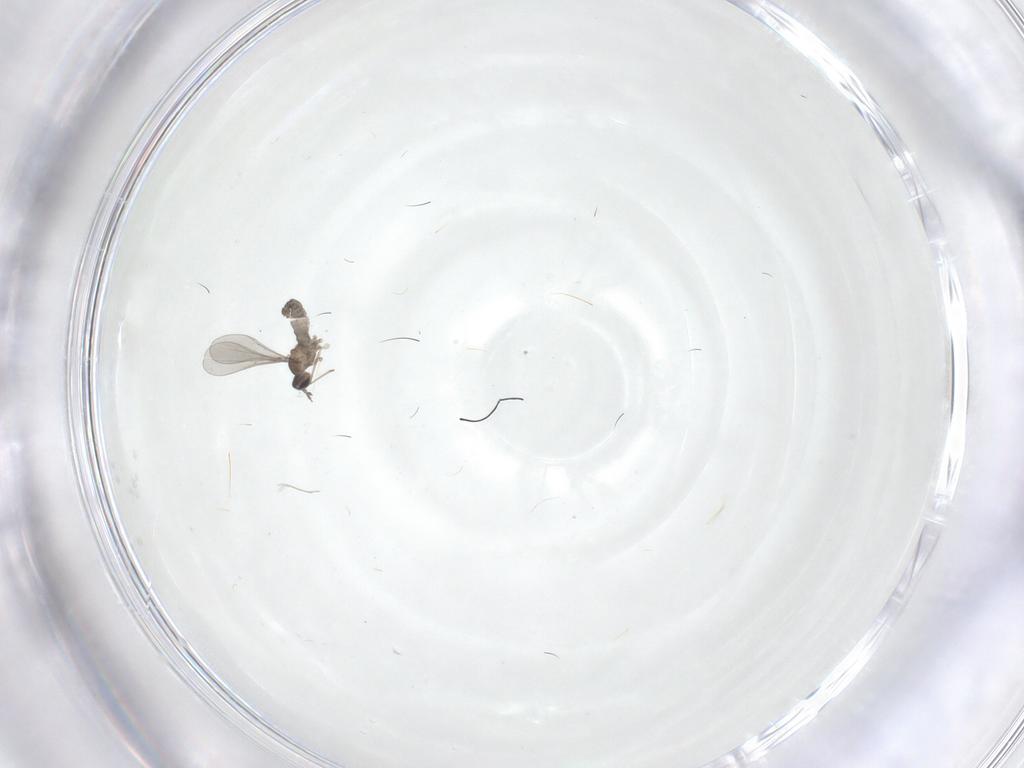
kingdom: Animalia
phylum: Arthropoda
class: Insecta
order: Diptera
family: Cecidomyiidae
